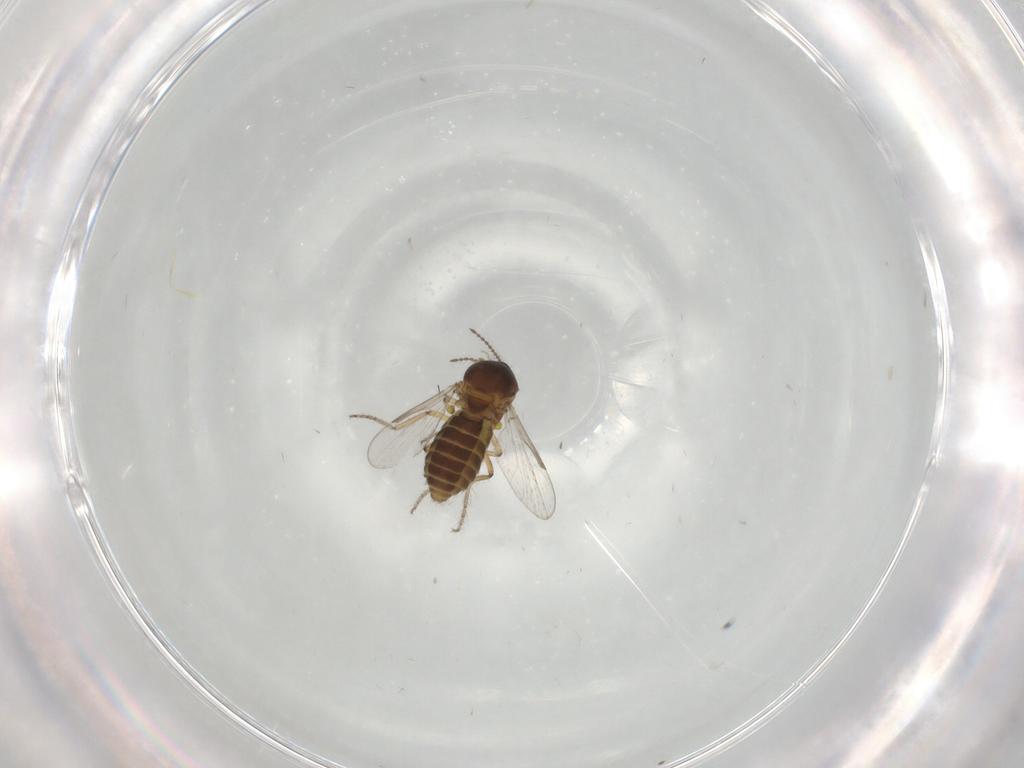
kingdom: Animalia
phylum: Arthropoda
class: Insecta
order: Diptera
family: Ceratopogonidae
